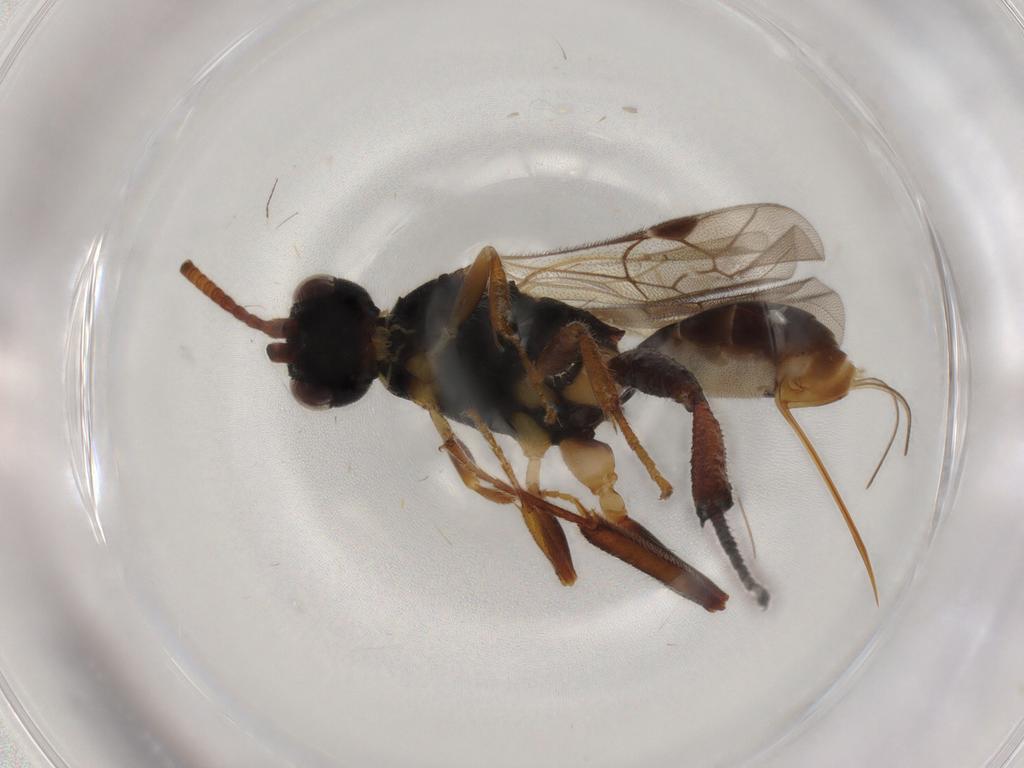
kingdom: Animalia
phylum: Arthropoda
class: Insecta
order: Hymenoptera
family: Ichneumonidae
